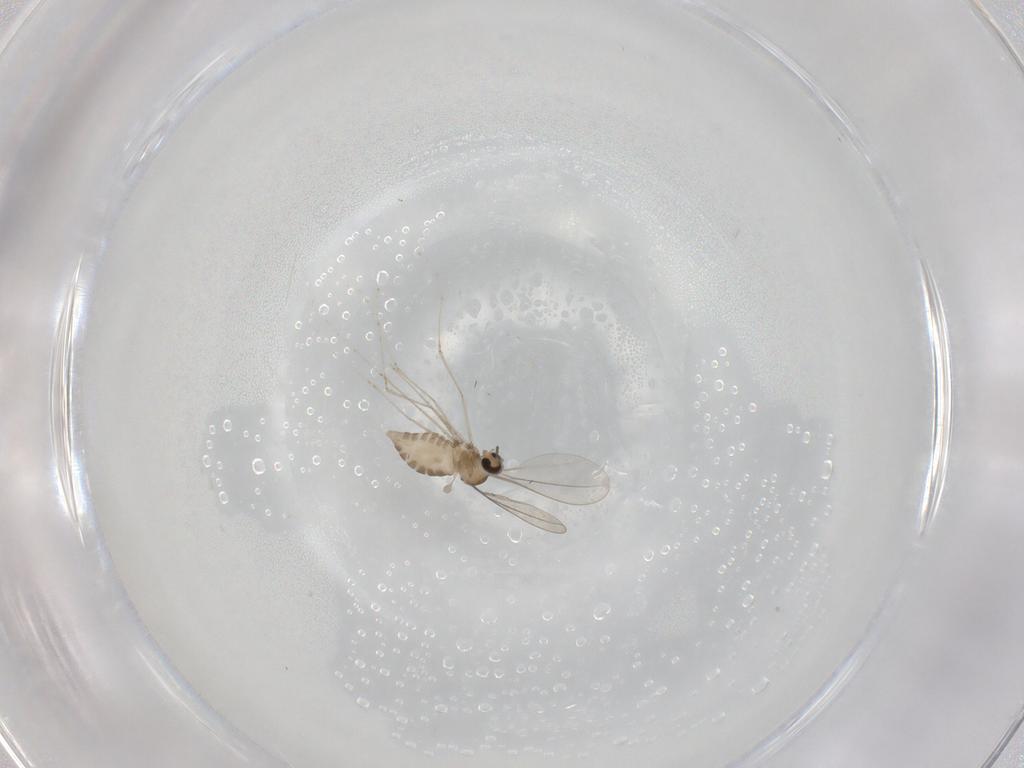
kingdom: Animalia
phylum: Arthropoda
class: Insecta
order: Diptera
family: Cecidomyiidae
